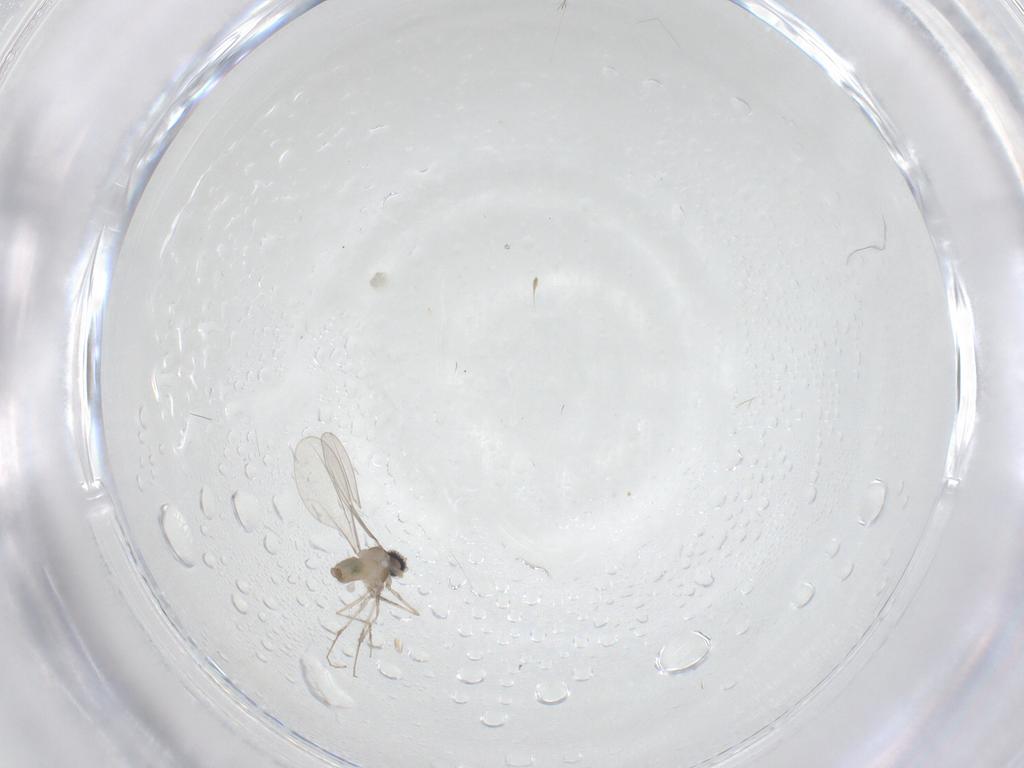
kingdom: Animalia
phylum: Arthropoda
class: Insecta
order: Diptera
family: Cecidomyiidae
